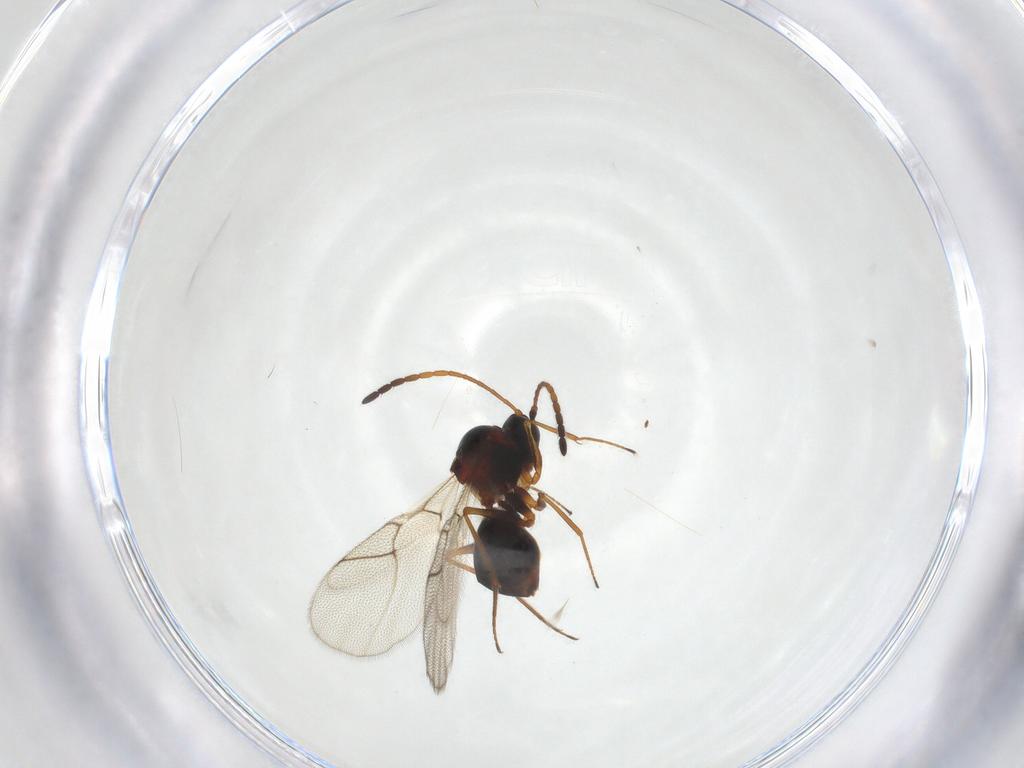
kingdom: Animalia
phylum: Arthropoda
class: Insecta
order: Hymenoptera
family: Figitidae
